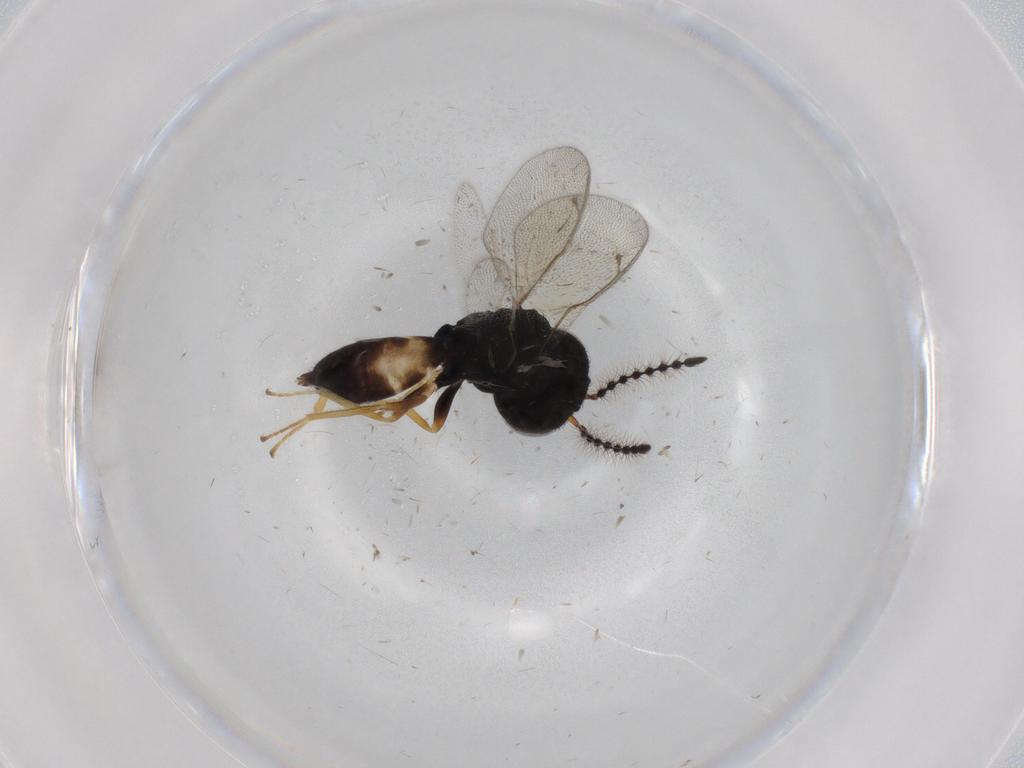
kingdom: Animalia
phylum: Arthropoda
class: Insecta
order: Hymenoptera
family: Pteromalidae
